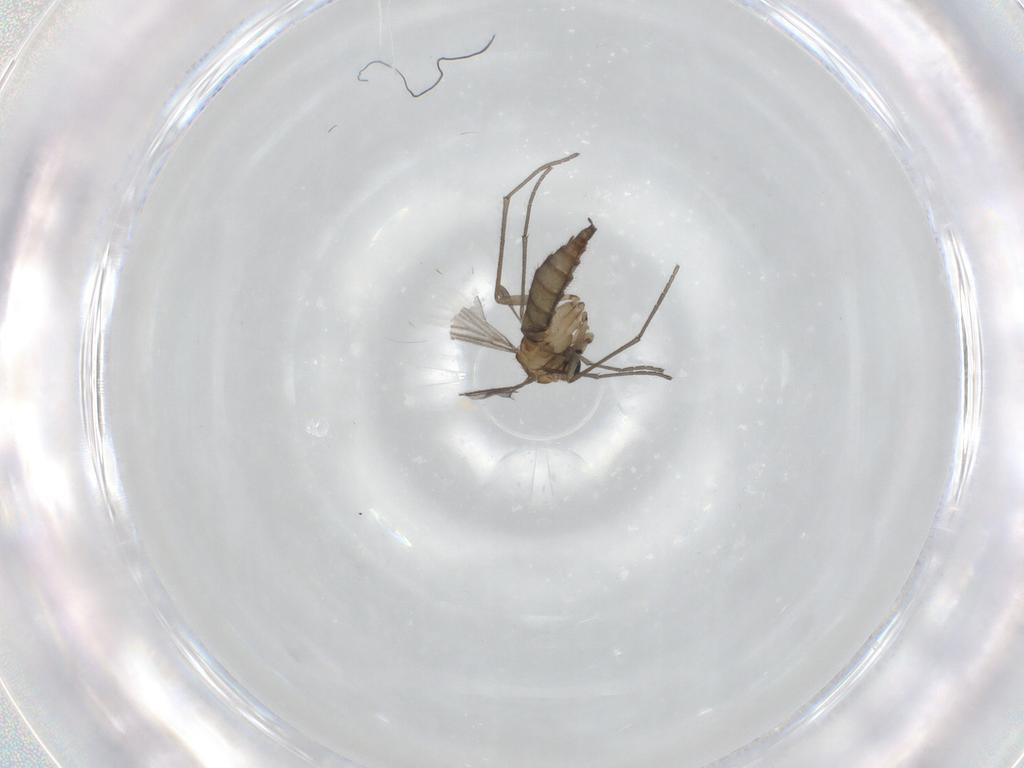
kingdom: Animalia
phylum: Arthropoda
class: Insecta
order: Diptera
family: Sciaridae
